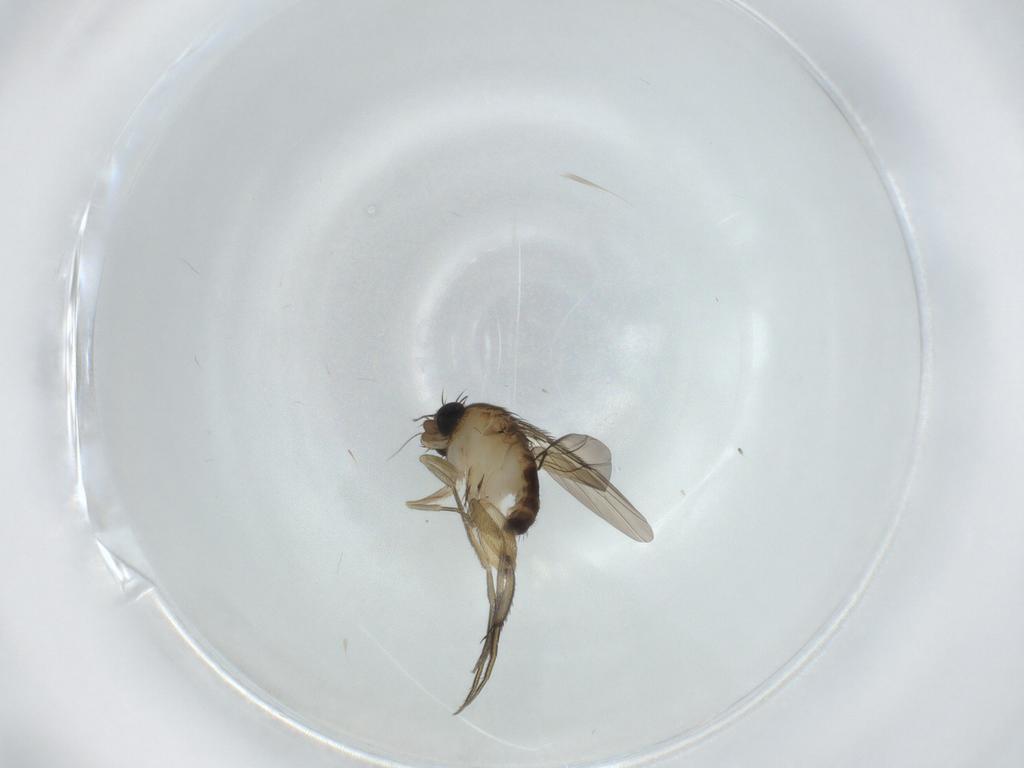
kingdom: Animalia
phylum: Arthropoda
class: Insecta
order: Diptera
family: Phoridae
